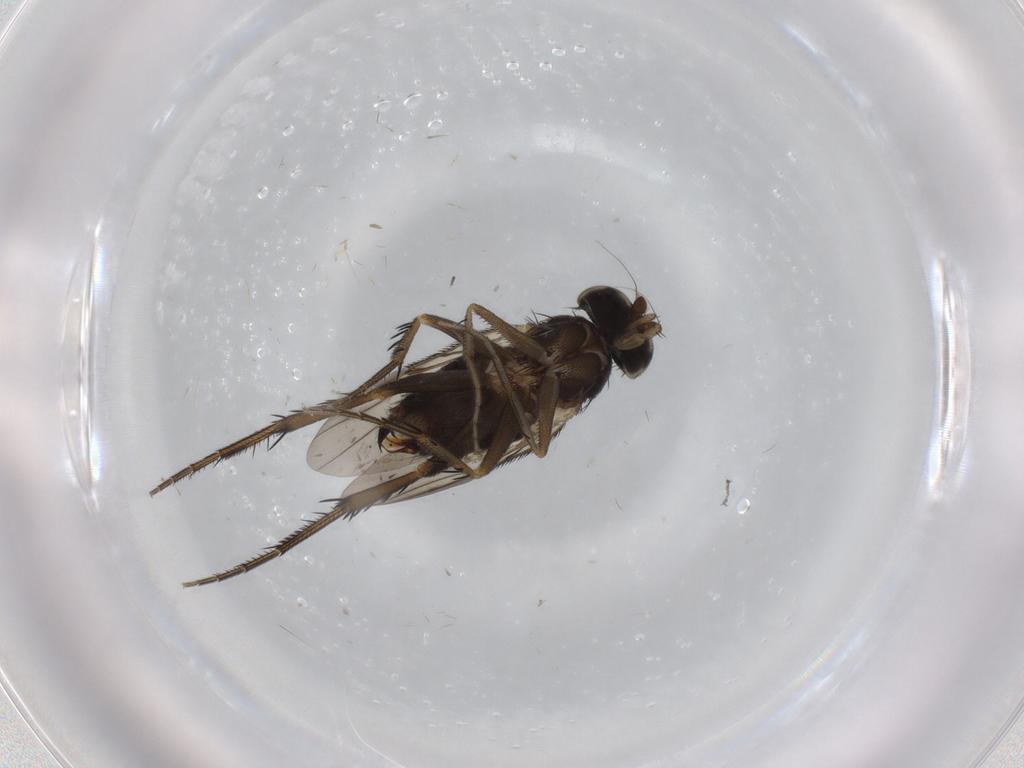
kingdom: Animalia
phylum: Arthropoda
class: Insecta
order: Diptera
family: Phoridae
